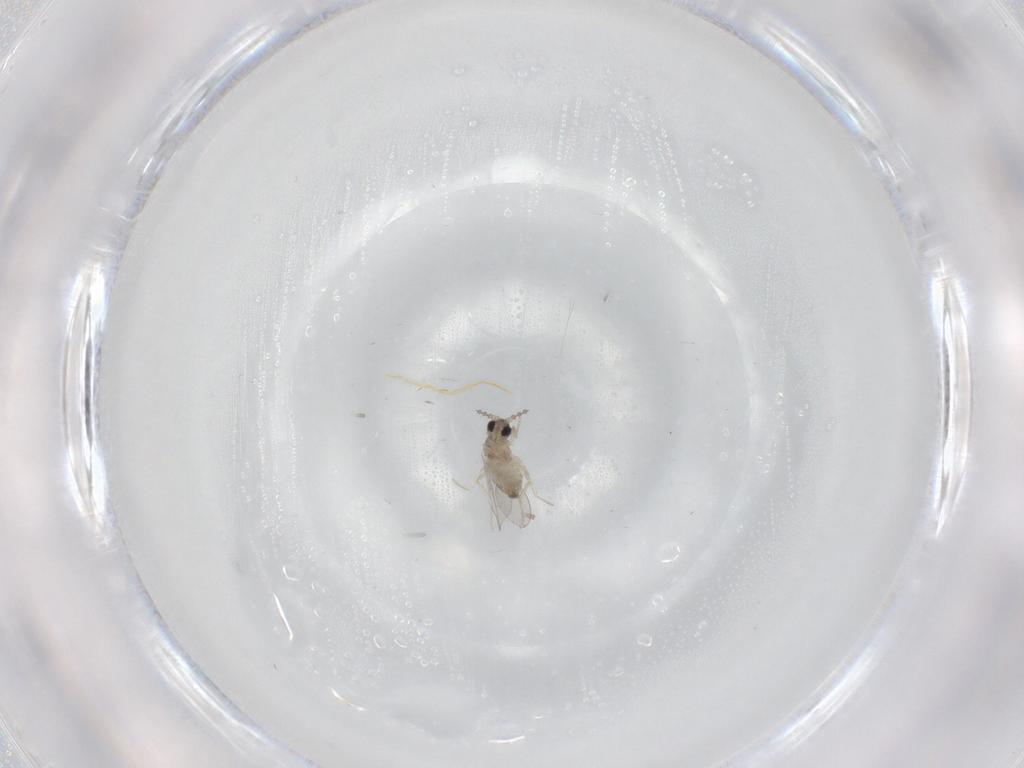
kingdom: Animalia
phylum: Arthropoda
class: Insecta
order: Diptera
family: Cecidomyiidae
